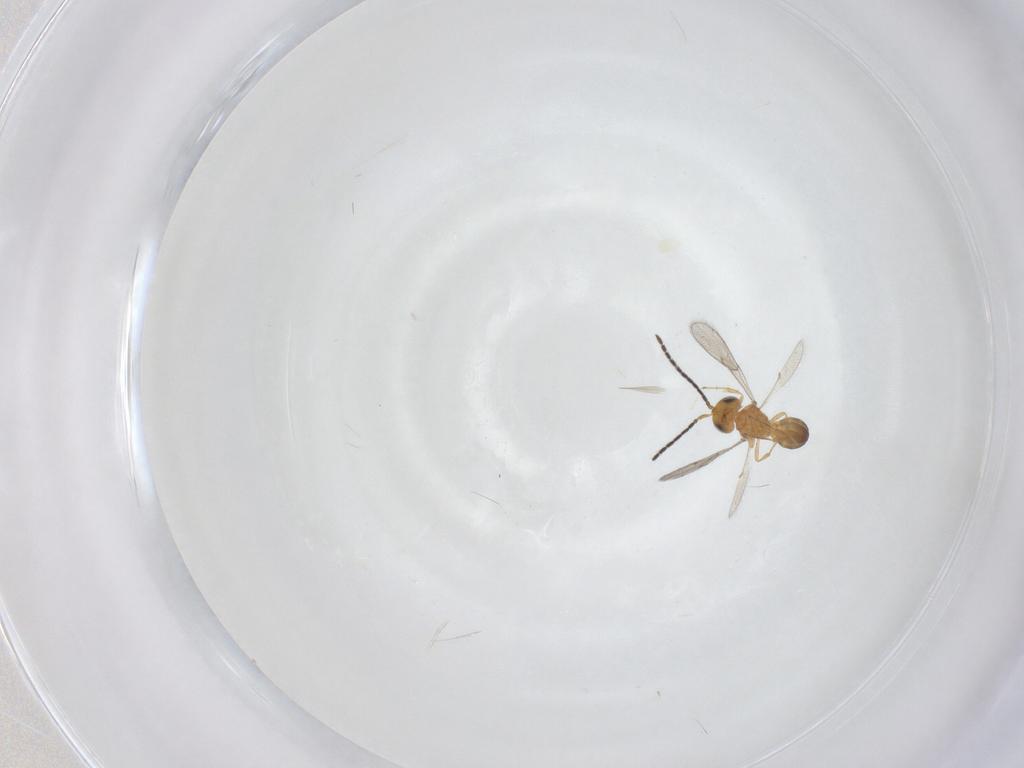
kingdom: Animalia
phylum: Arthropoda
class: Insecta
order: Hymenoptera
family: Scelionidae
